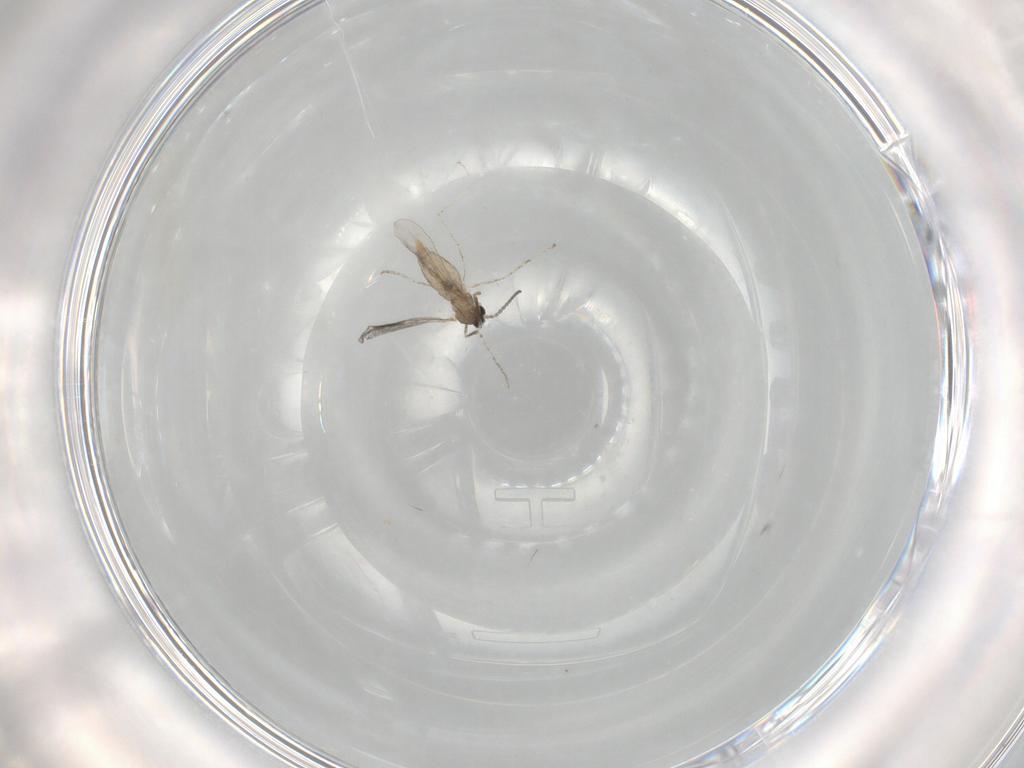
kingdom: Animalia
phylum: Arthropoda
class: Insecta
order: Diptera
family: Cecidomyiidae
